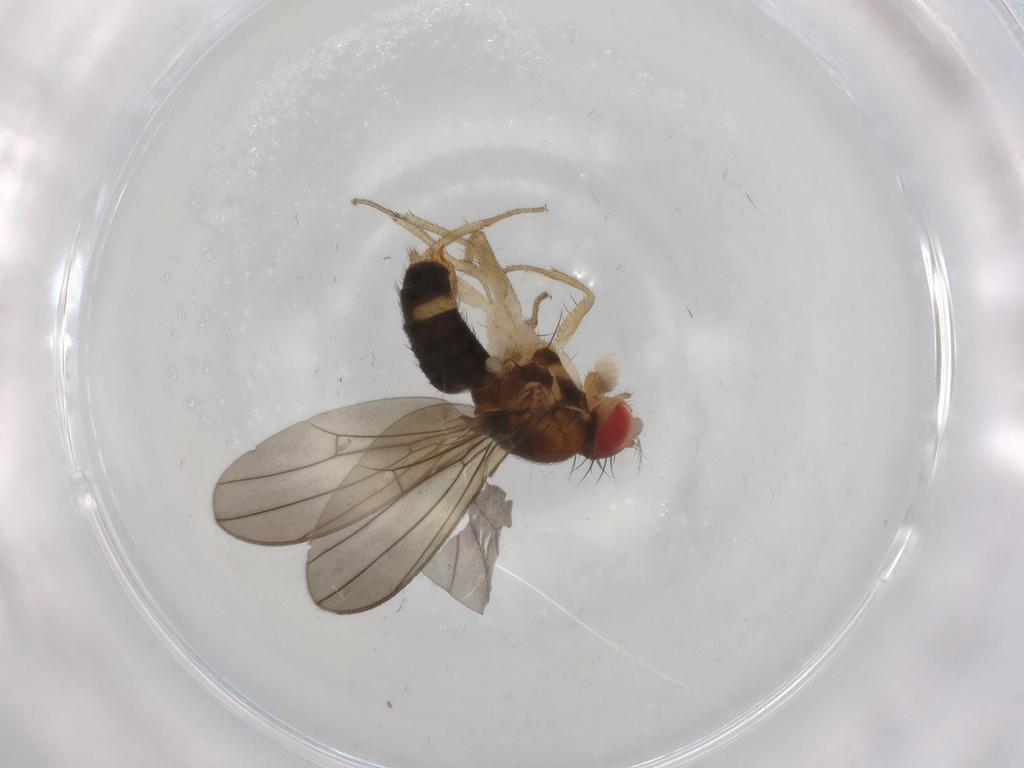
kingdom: Animalia
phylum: Arthropoda
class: Insecta
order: Diptera
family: Drosophilidae
